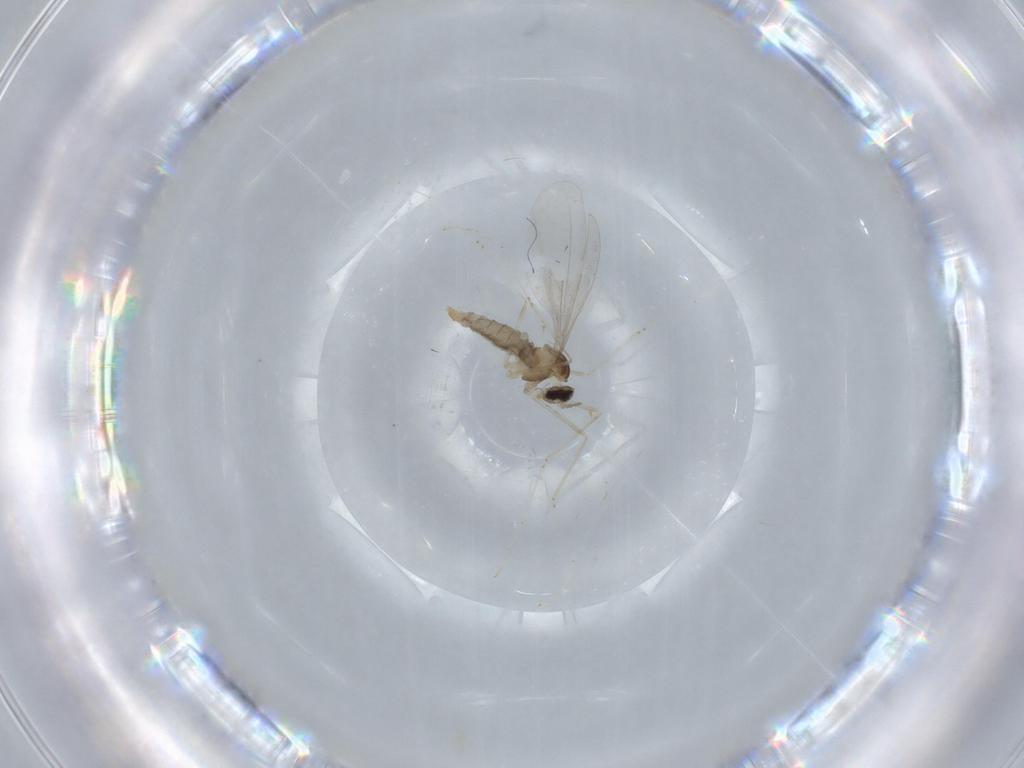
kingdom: Animalia
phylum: Arthropoda
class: Insecta
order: Diptera
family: Cecidomyiidae
